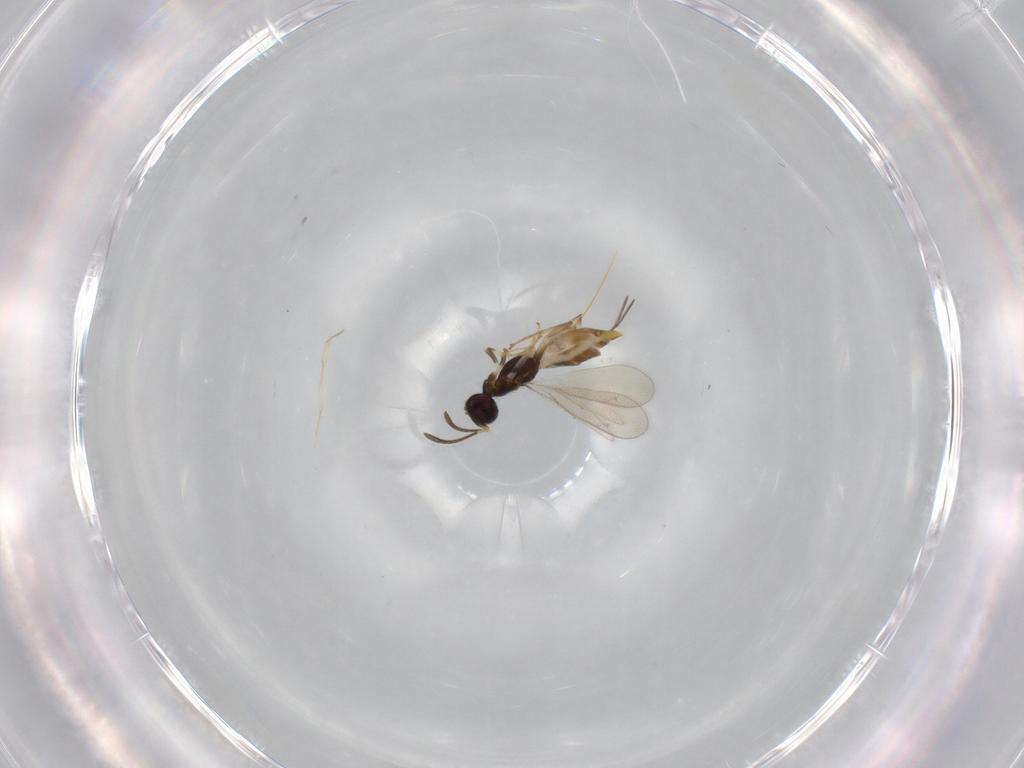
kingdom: Animalia
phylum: Arthropoda
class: Insecta
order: Hymenoptera
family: Eupelmidae
